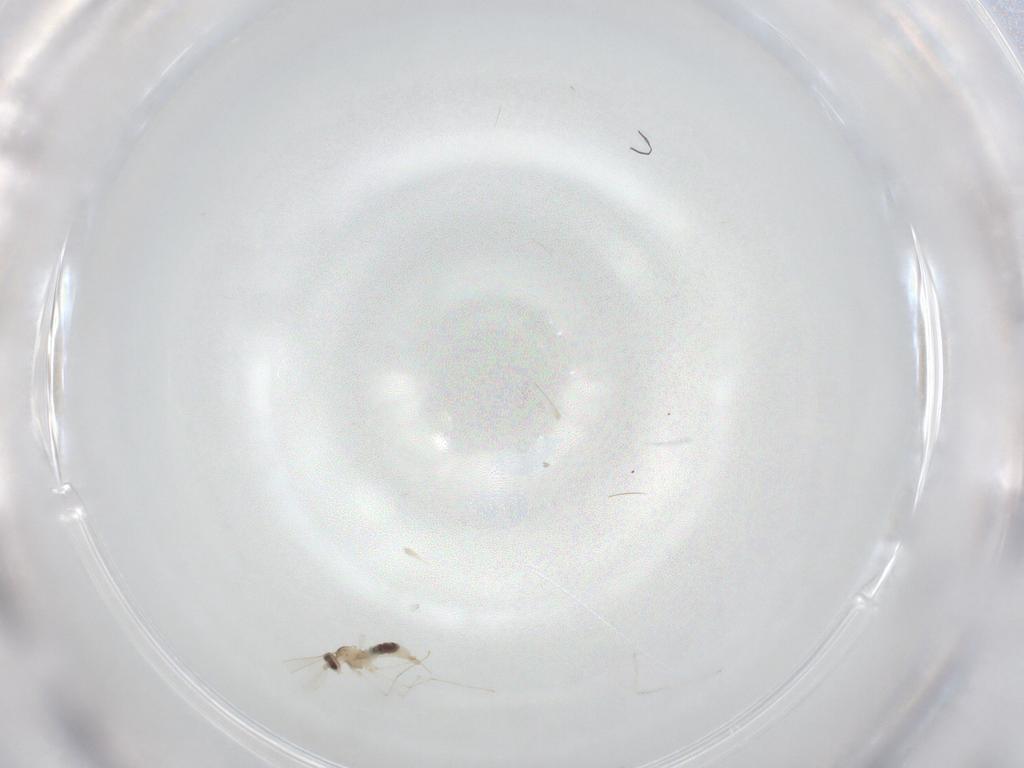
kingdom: Animalia
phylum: Arthropoda
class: Insecta
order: Diptera
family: Cecidomyiidae
